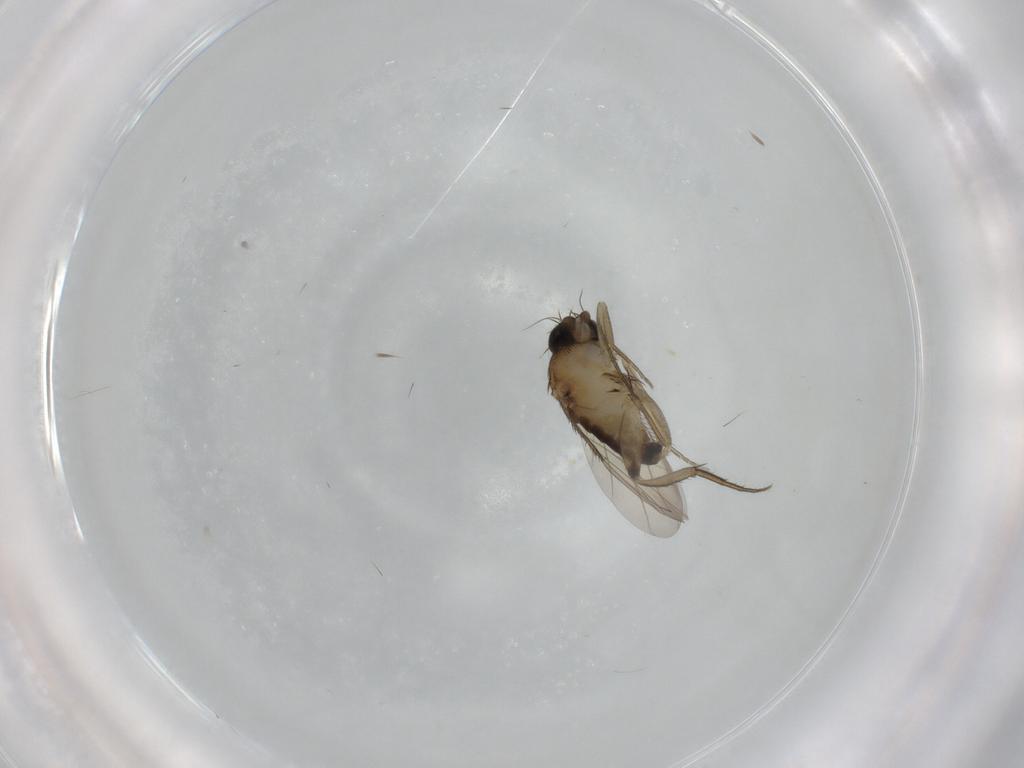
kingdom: Animalia
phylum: Arthropoda
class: Insecta
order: Diptera
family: Phoridae
